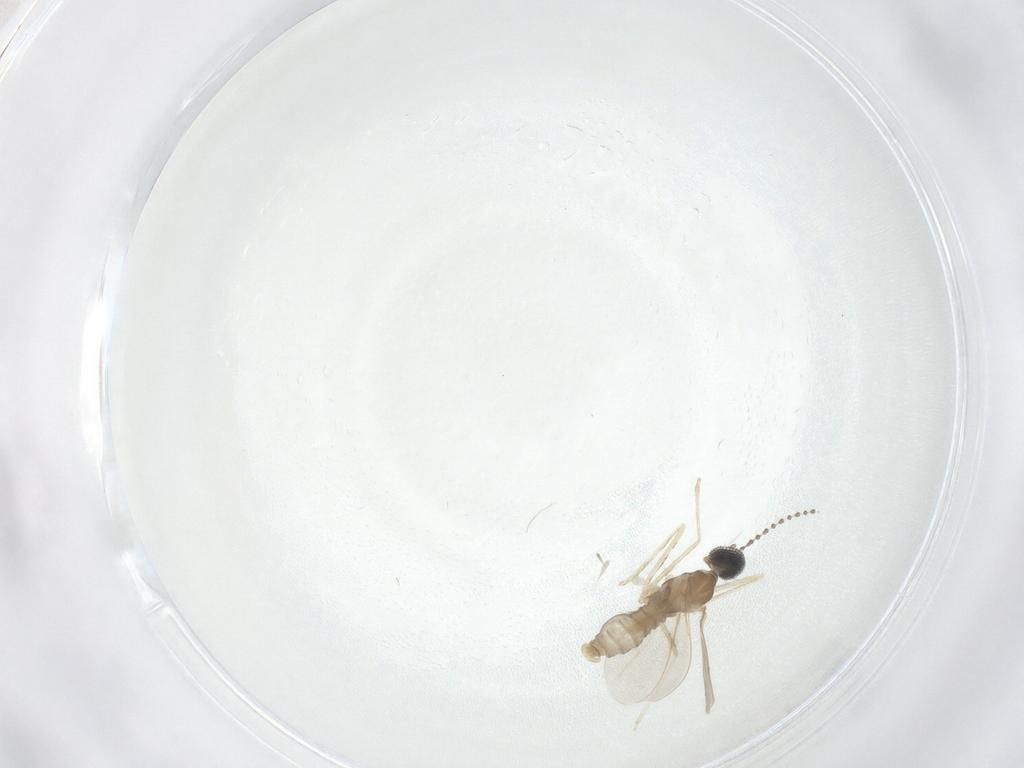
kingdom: Animalia
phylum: Arthropoda
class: Insecta
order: Diptera
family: Cecidomyiidae
